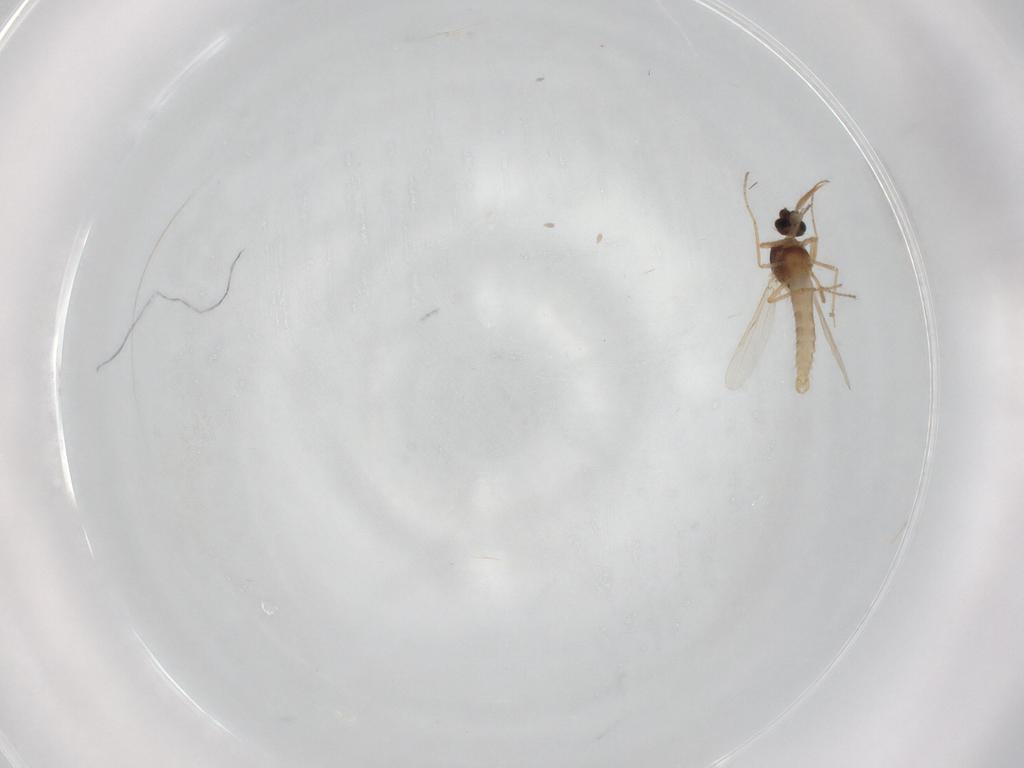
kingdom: Animalia
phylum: Arthropoda
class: Insecta
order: Diptera
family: Ceratopogonidae
